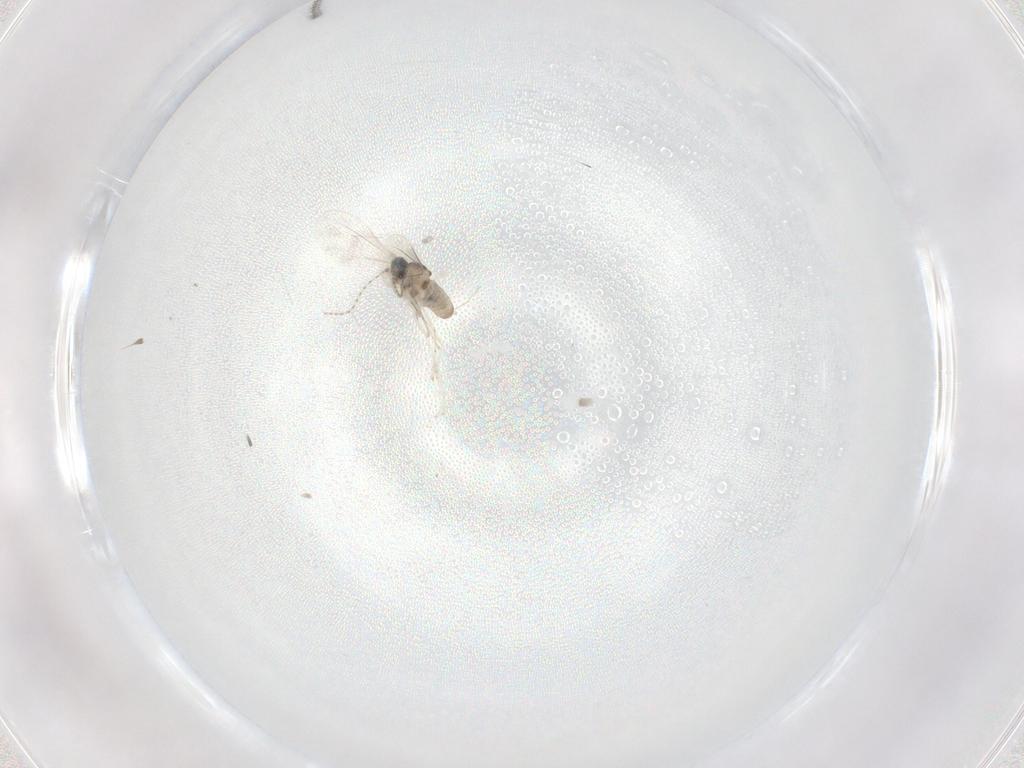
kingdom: Animalia
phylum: Arthropoda
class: Insecta
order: Diptera
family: Ceratopogonidae
